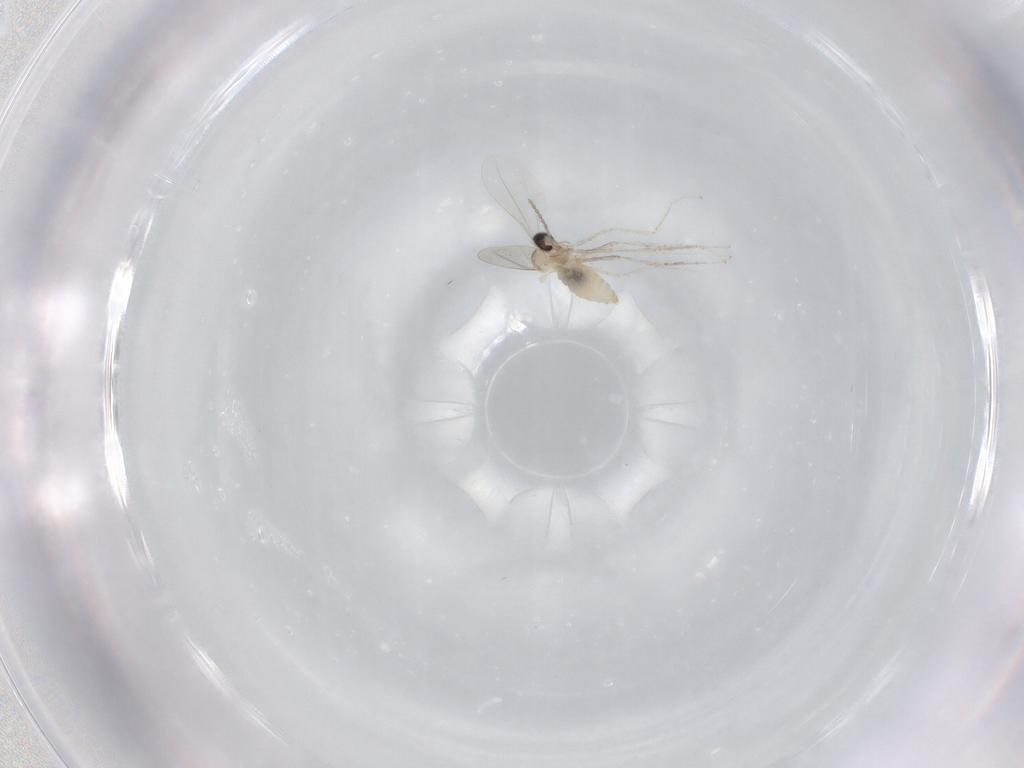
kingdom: Animalia
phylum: Arthropoda
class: Insecta
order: Diptera
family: Cecidomyiidae
